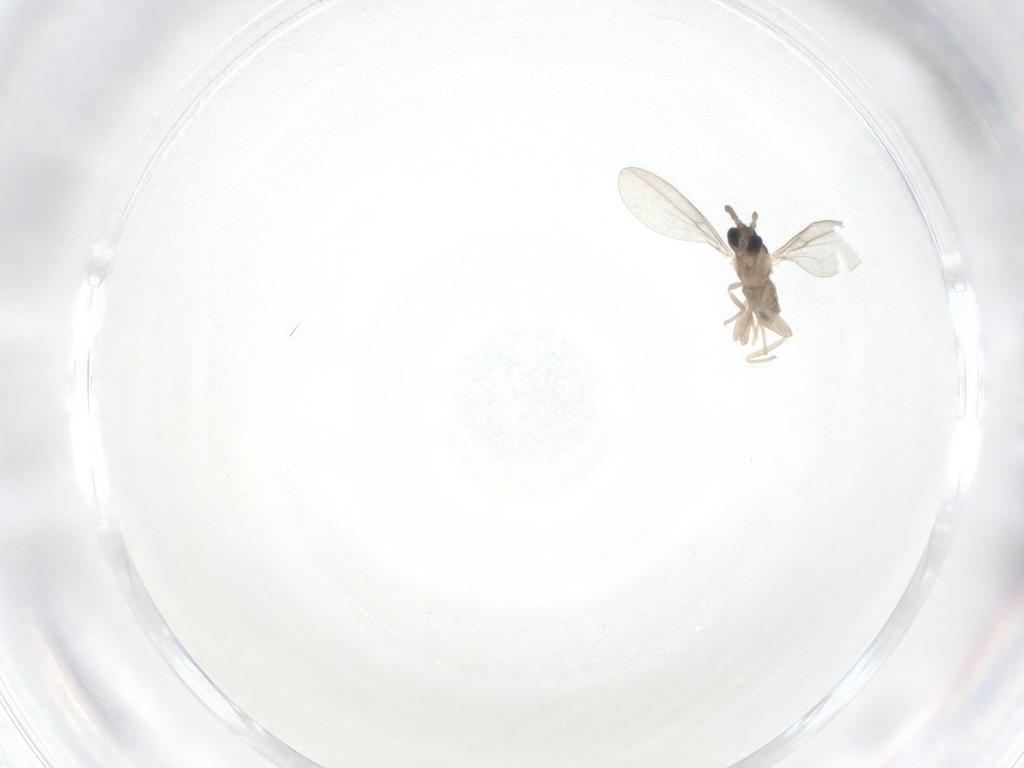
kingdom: Animalia
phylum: Arthropoda
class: Insecta
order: Diptera
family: Cecidomyiidae
